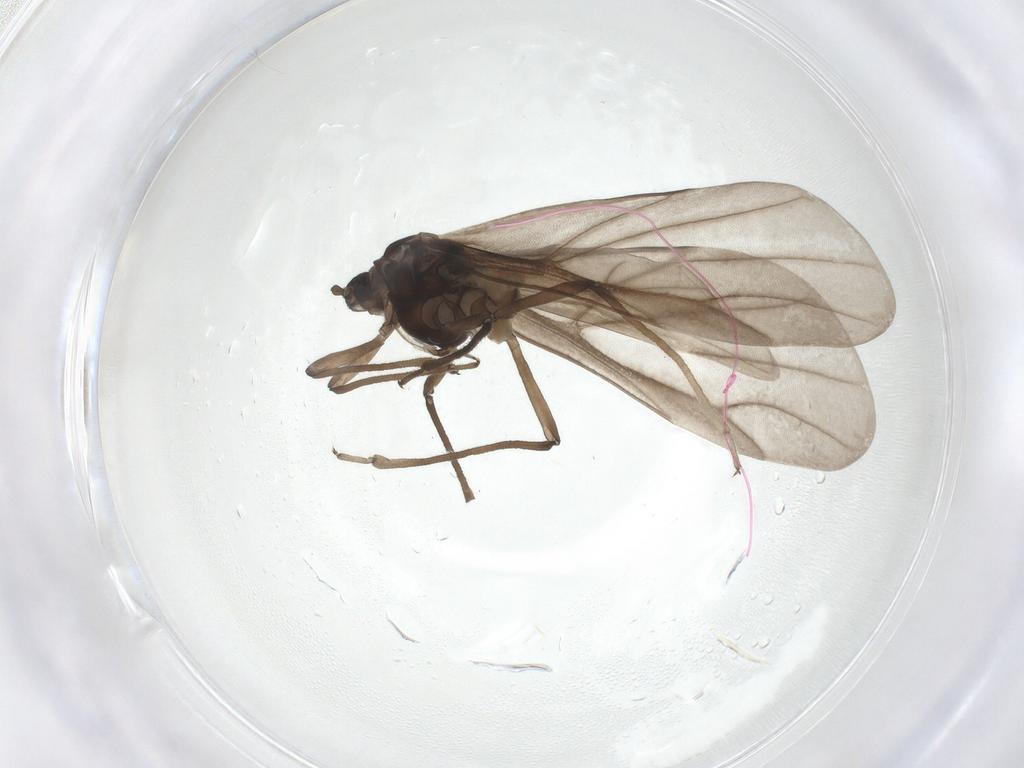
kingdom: Animalia
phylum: Arthropoda
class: Insecta
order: Hemiptera
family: Aphididae
